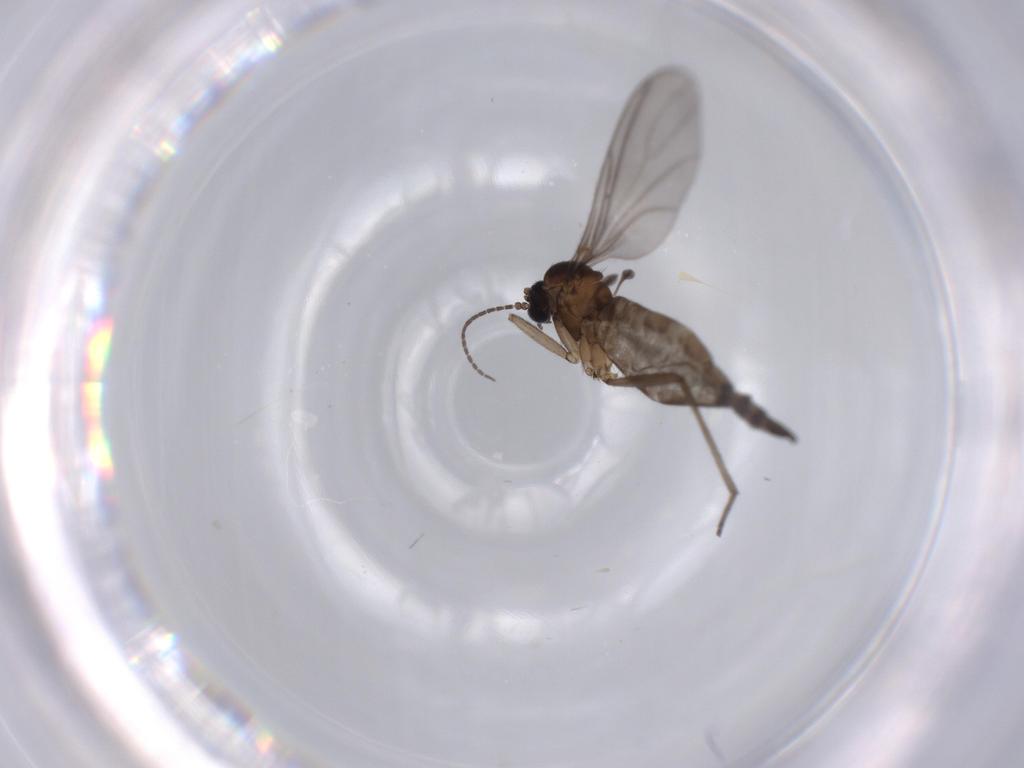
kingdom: Animalia
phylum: Arthropoda
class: Insecta
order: Diptera
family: Sciaridae
